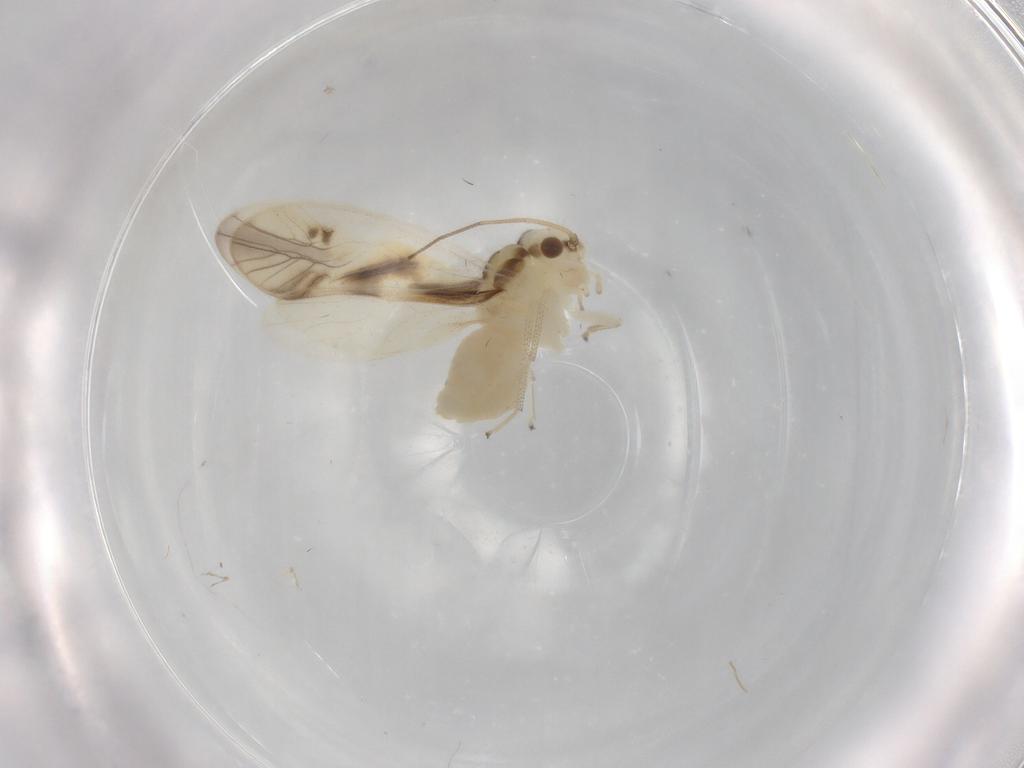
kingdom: Animalia
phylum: Arthropoda
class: Insecta
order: Psocodea
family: Caeciliusidae
